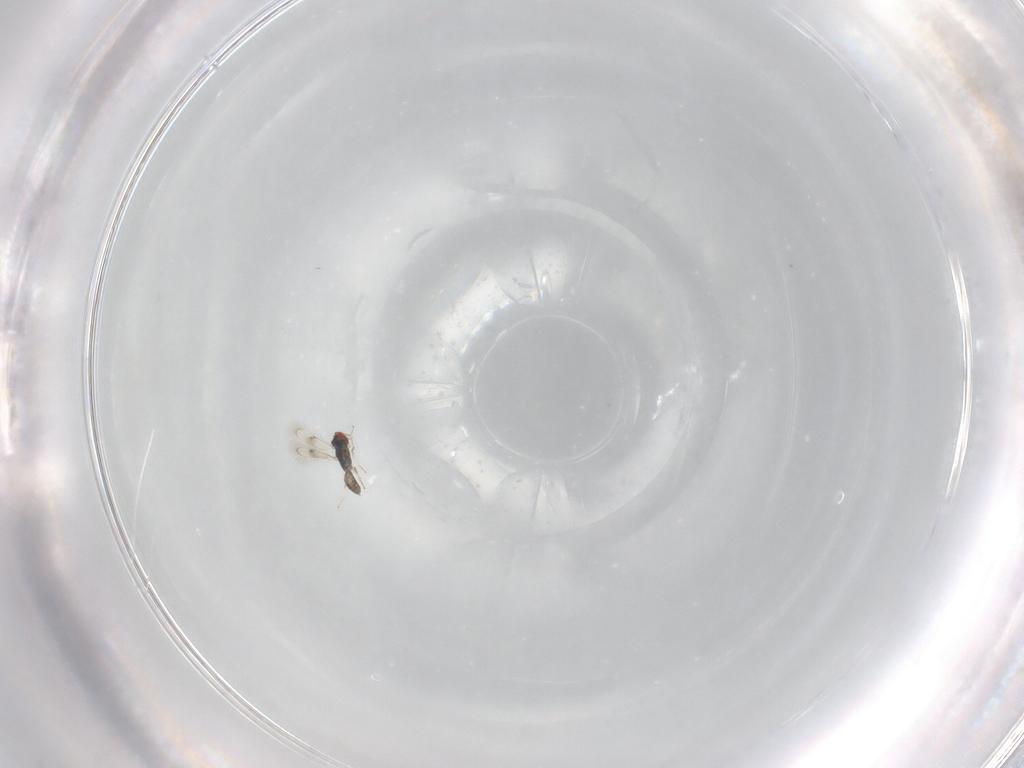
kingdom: Animalia
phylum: Arthropoda
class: Insecta
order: Hymenoptera
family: Eulophidae
